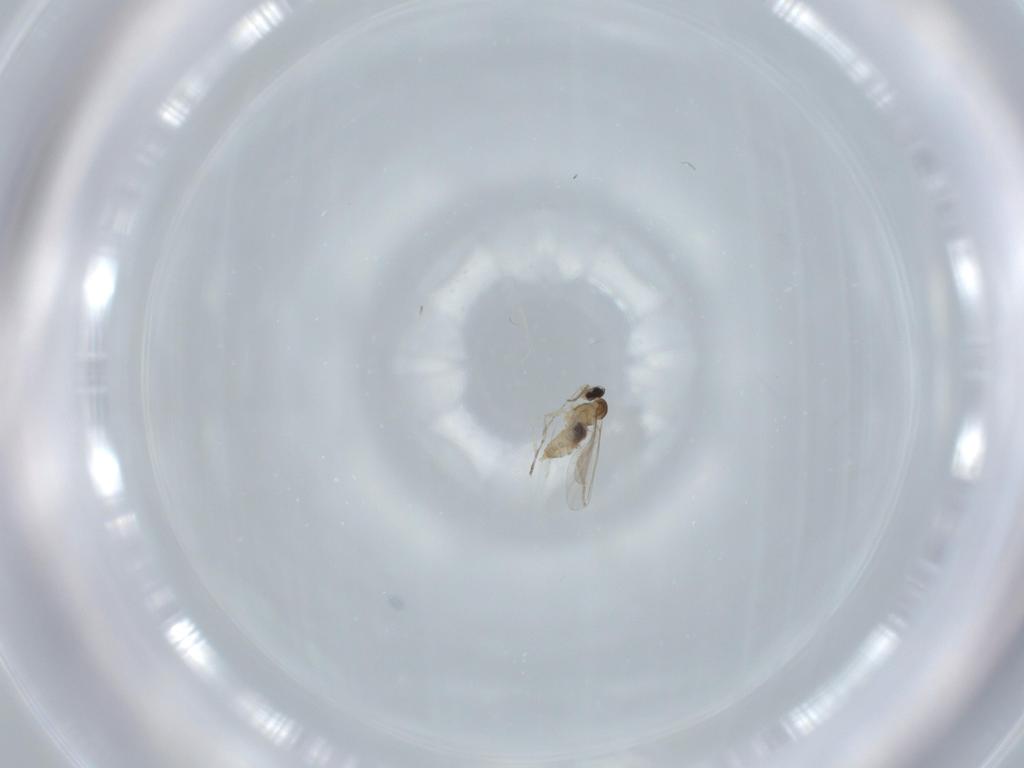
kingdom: Animalia
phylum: Arthropoda
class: Insecta
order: Diptera
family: Cecidomyiidae
